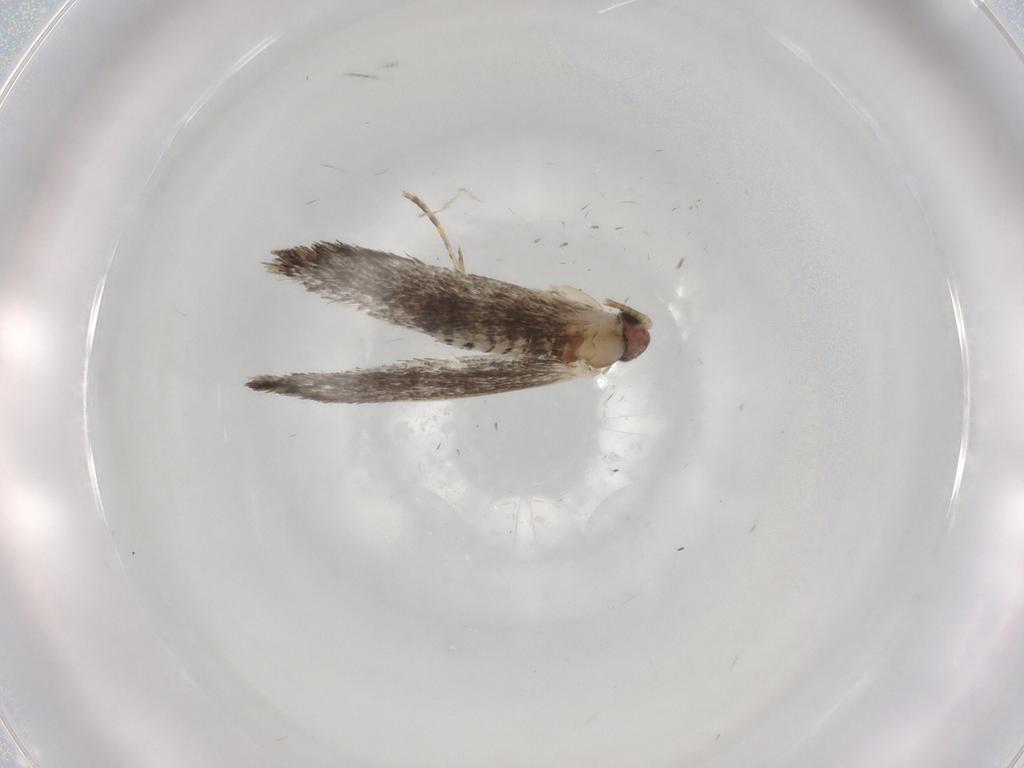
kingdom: Animalia
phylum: Arthropoda
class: Insecta
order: Lepidoptera
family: Tineidae
